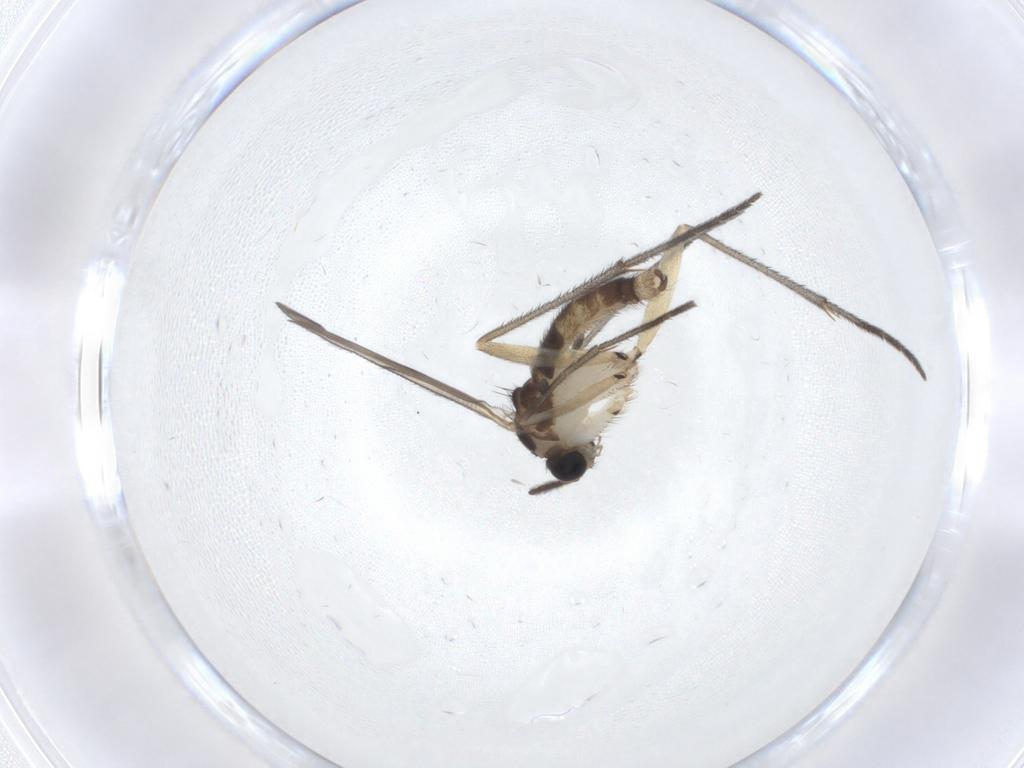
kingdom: Animalia
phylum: Arthropoda
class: Insecta
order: Diptera
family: Sciaridae
